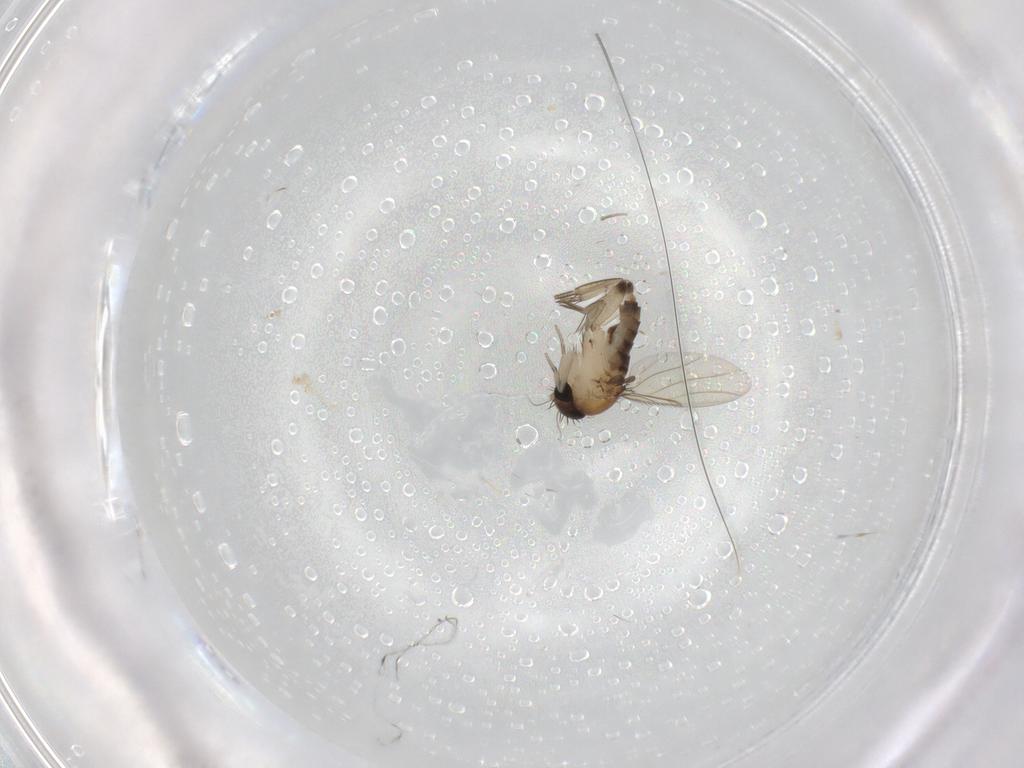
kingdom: Animalia
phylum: Arthropoda
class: Insecta
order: Diptera
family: Phoridae
